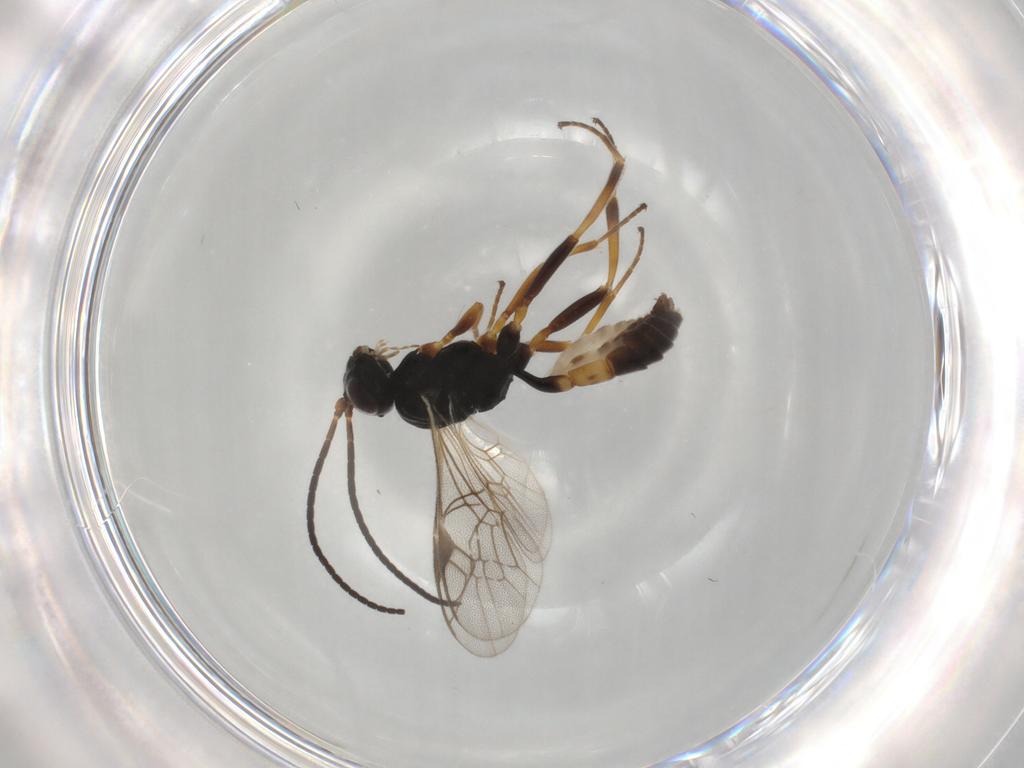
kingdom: Animalia
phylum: Arthropoda
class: Insecta
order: Hymenoptera
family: Ichneumonidae
